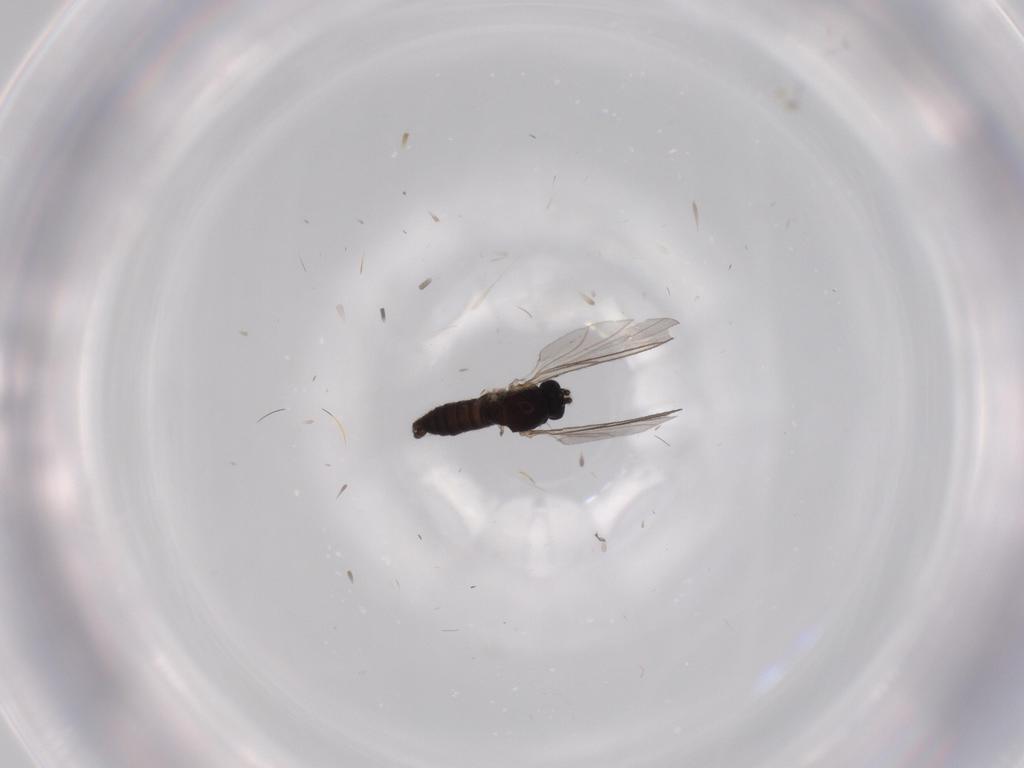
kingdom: Animalia
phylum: Arthropoda
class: Insecta
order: Diptera
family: Sciaridae
